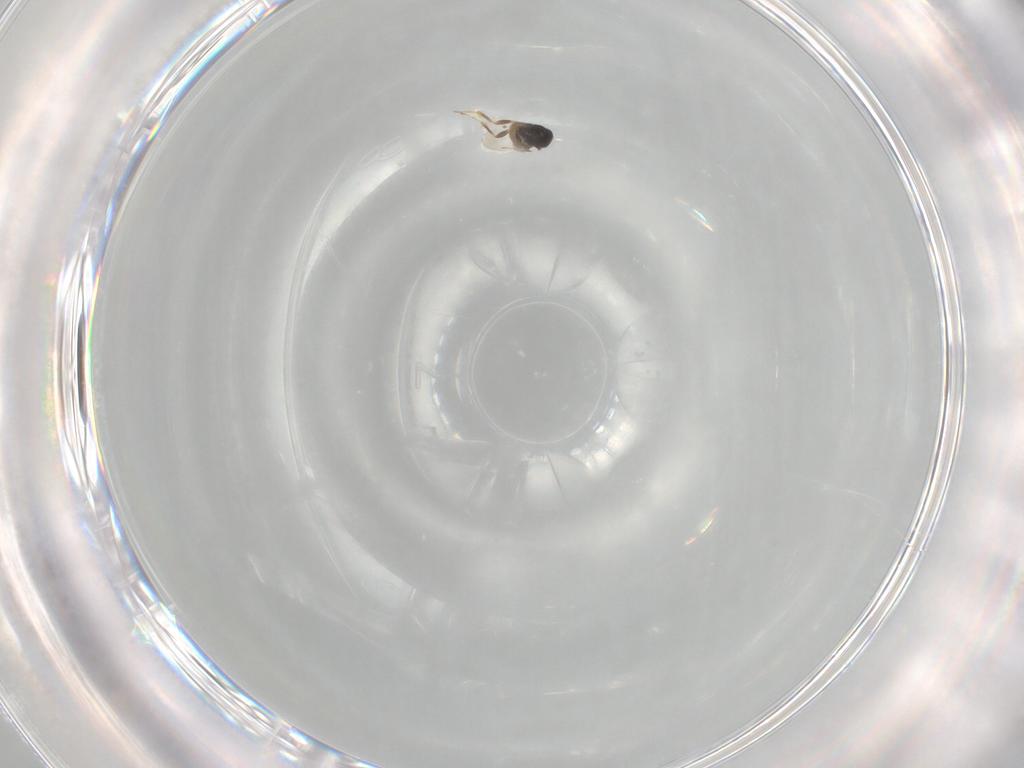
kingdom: Animalia
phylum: Arthropoda
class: Insecta
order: Hymenoptera
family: Ceraphronidae
